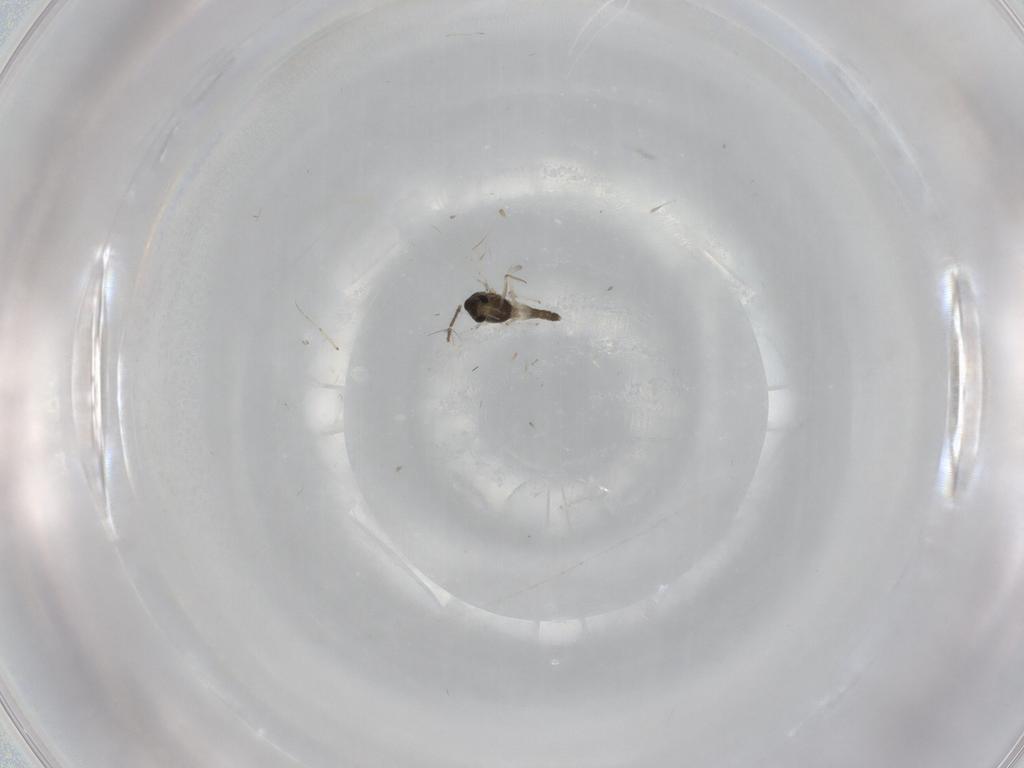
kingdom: Animalia
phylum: Arthropoda
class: Insecta
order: Diptera
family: Chironomidae
